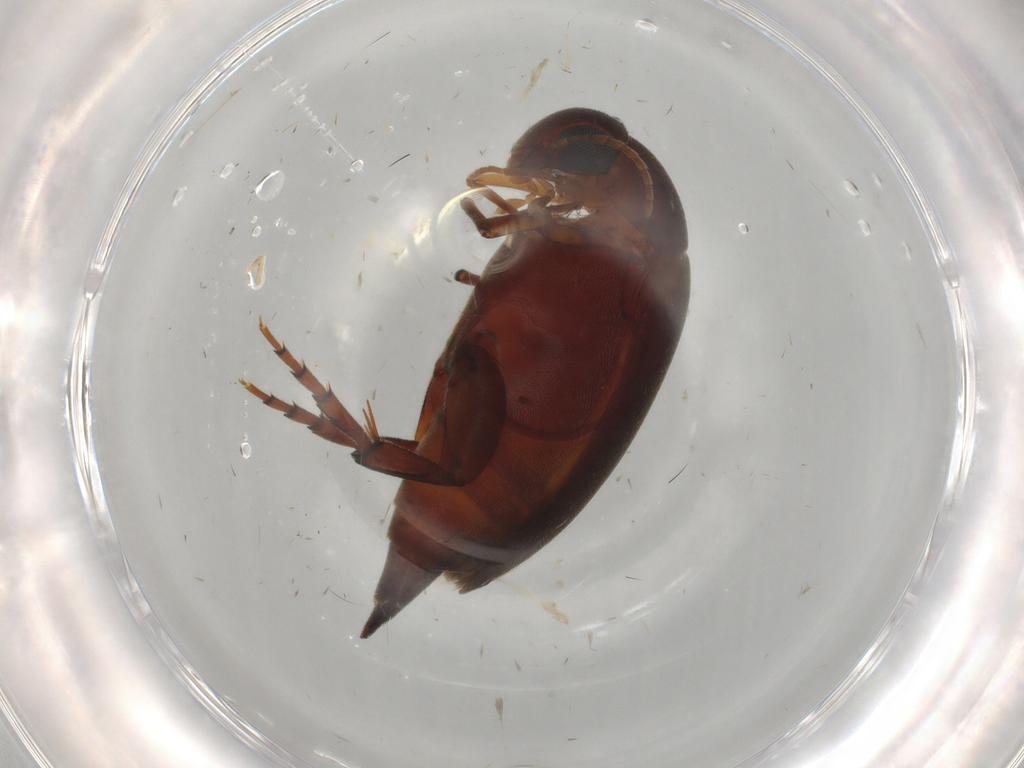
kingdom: Animalia
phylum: Arthropoda
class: Insecta
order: Coleoptera
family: Mordellidae
